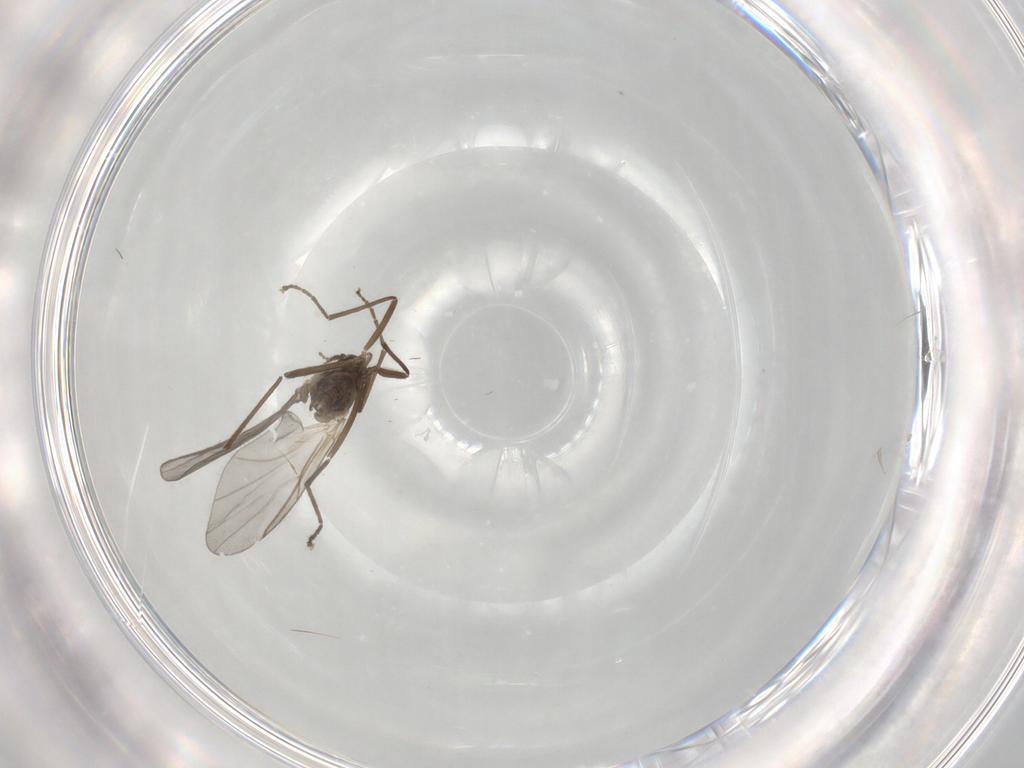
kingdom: Animalia
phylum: Arthropoda
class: Insecta
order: Diptera
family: Cecidomyiidae
